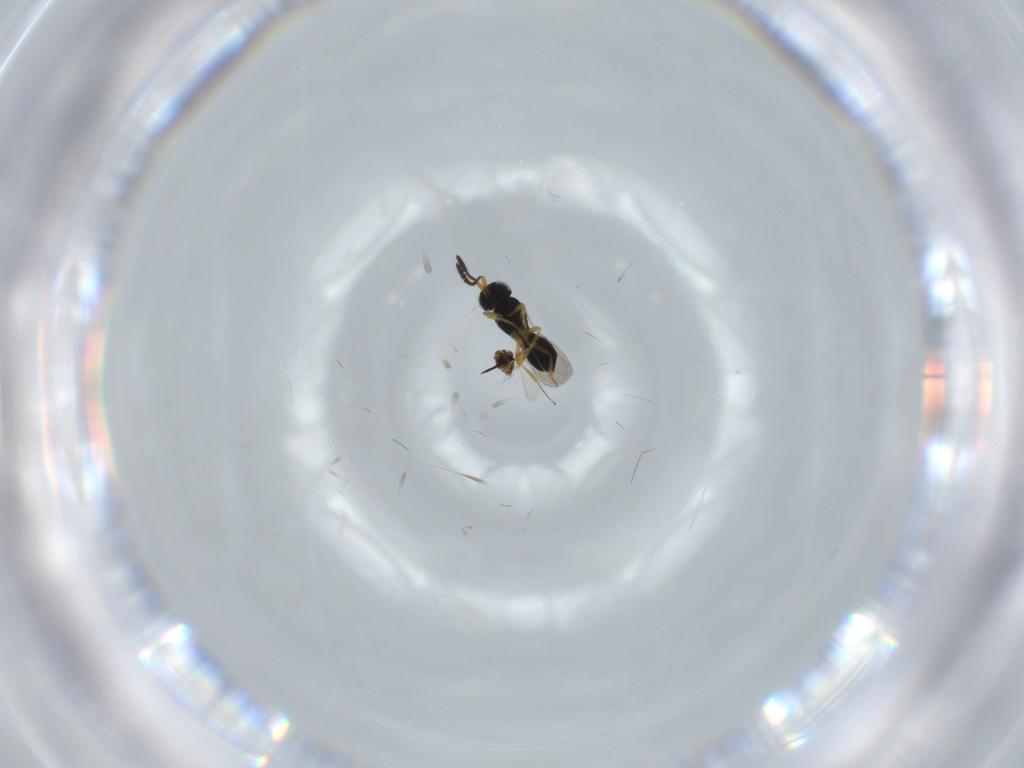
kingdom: Animalia
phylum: Arthropoda
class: Insecta
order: Hymenoptera
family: Scelionidae
